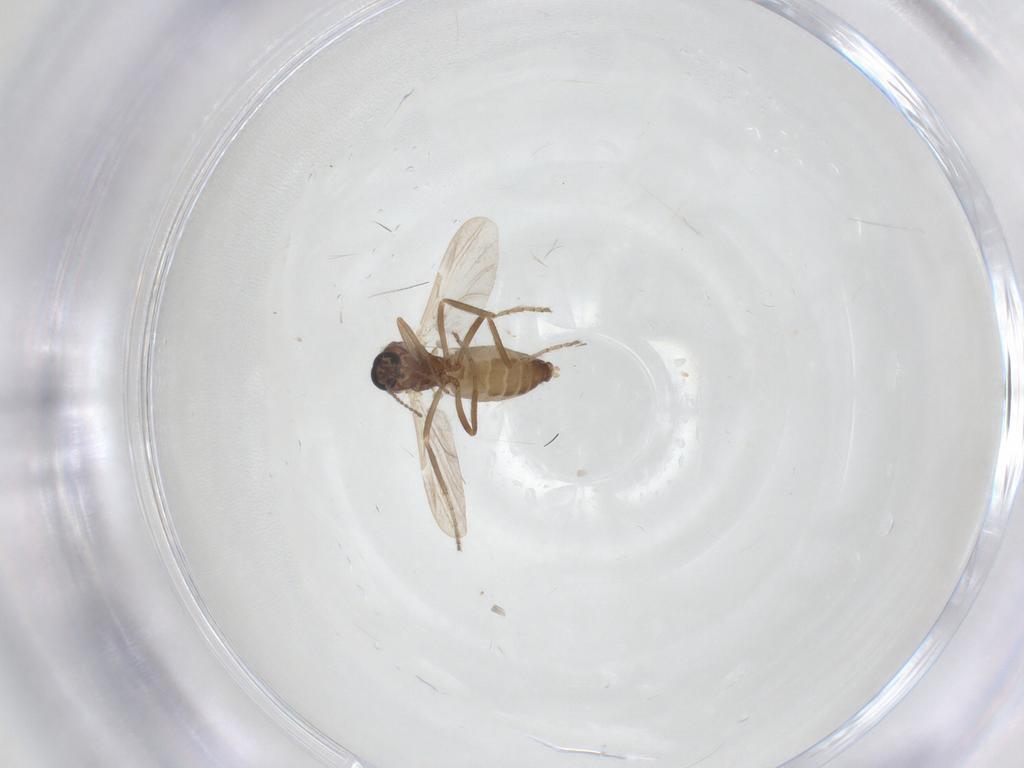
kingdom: Animalia
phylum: Arthropoda
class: Insecta
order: Diptera
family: Ceratopogonidae
